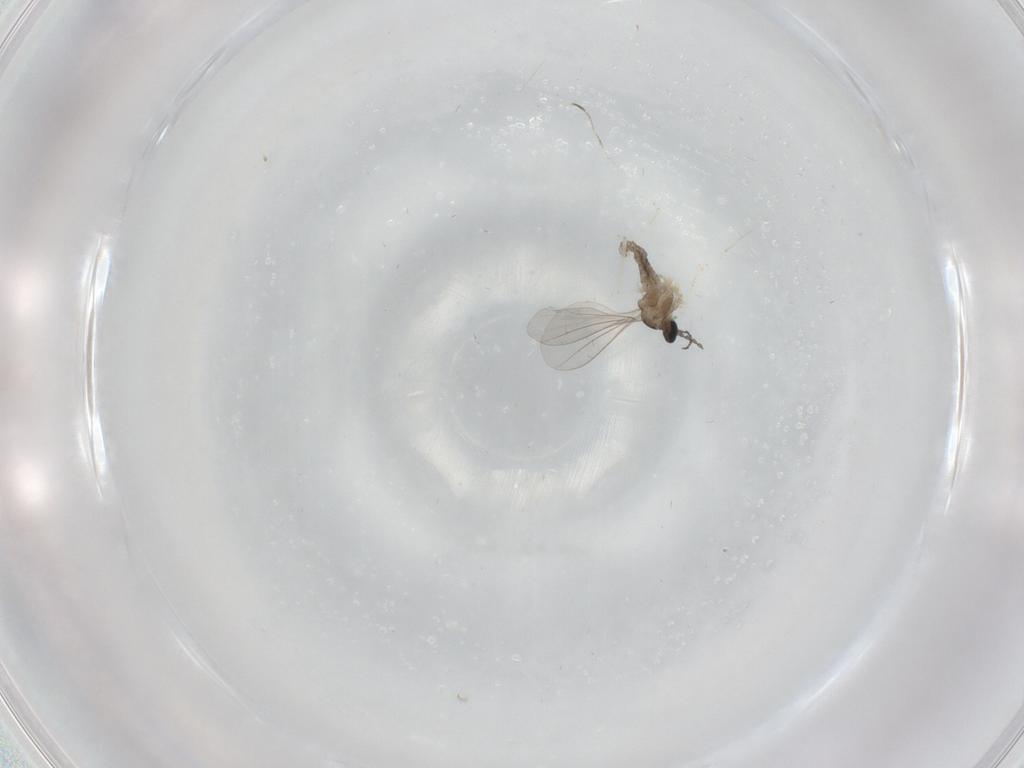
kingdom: Animalia
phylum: Arthropoda
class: Insecta
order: Diptera
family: Cecidomyiidae
